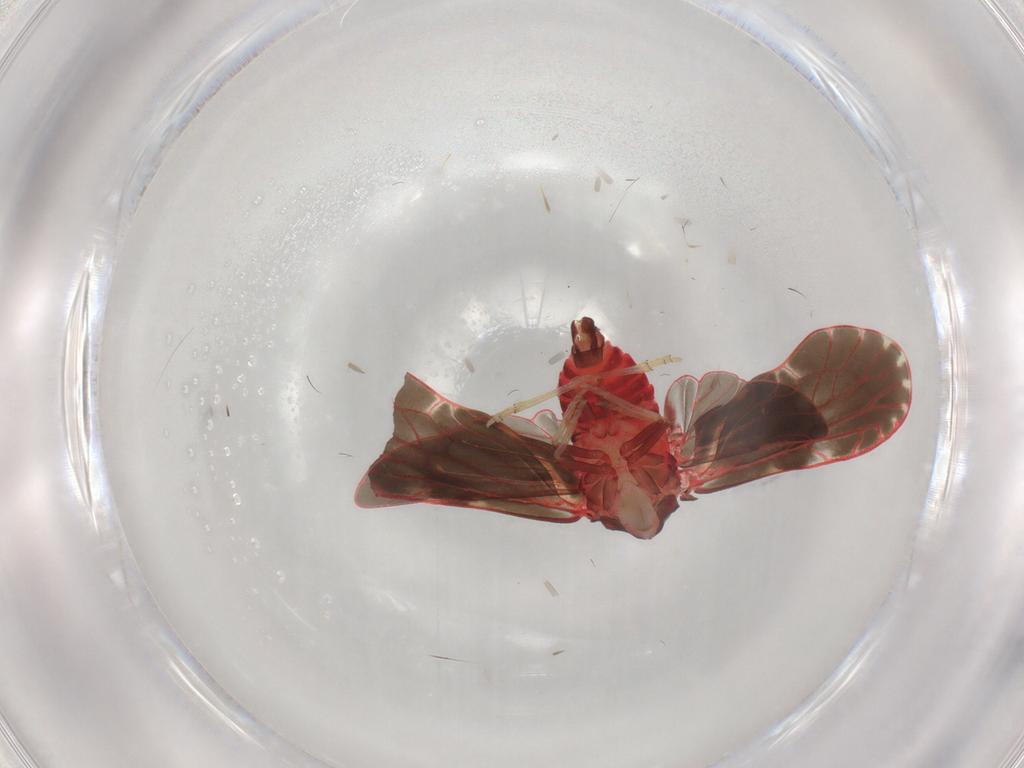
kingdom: Animalia
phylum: Arthropoda
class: Insecta
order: Hemiptera
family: Derbidae
